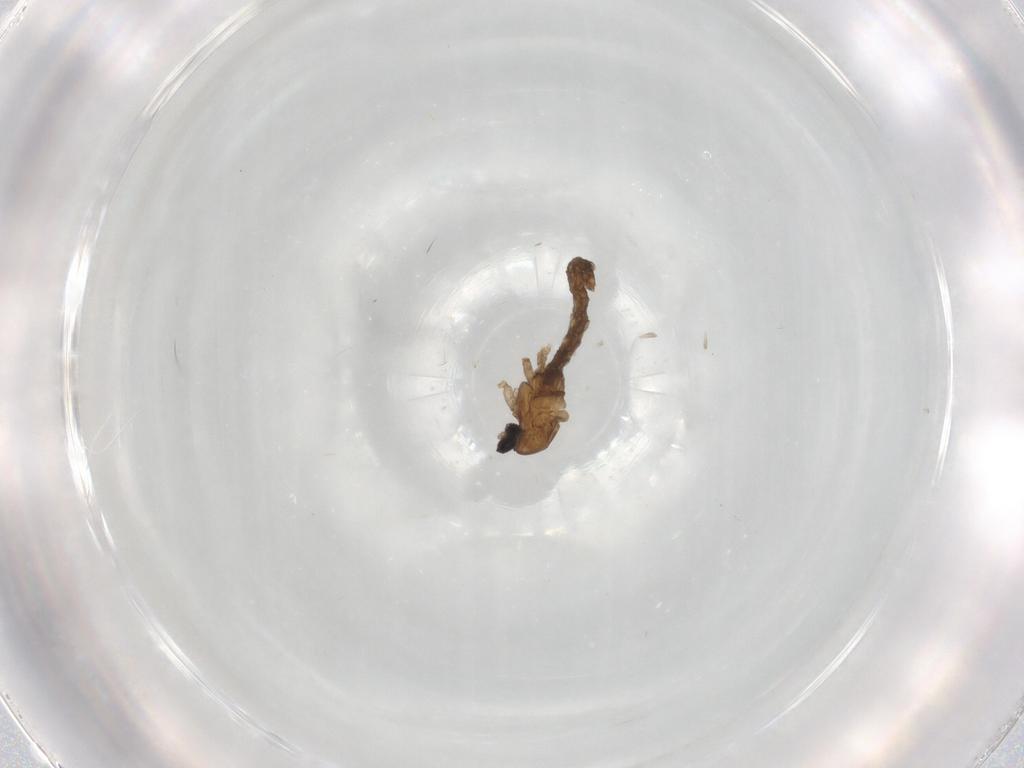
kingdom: Animalia
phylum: Arthropoda
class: Insecta
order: Diptera
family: Cecidomyiidae
